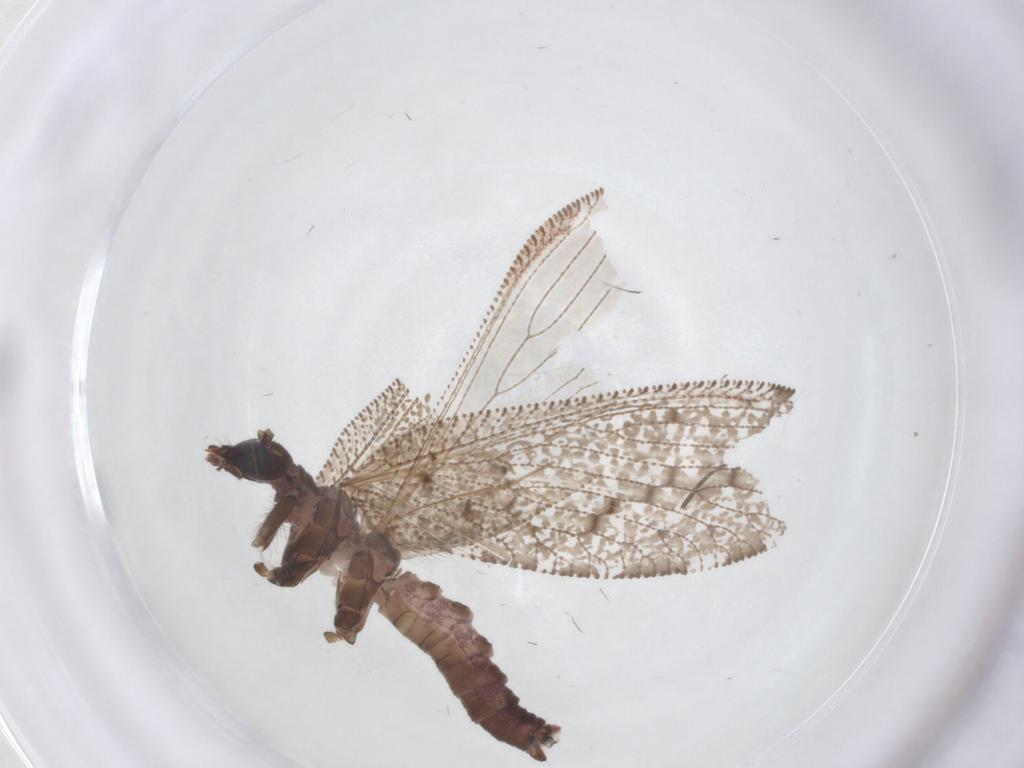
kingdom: Animalia
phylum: Arthropoda
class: Insecta
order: Neuroptera
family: Hemerobiidae
